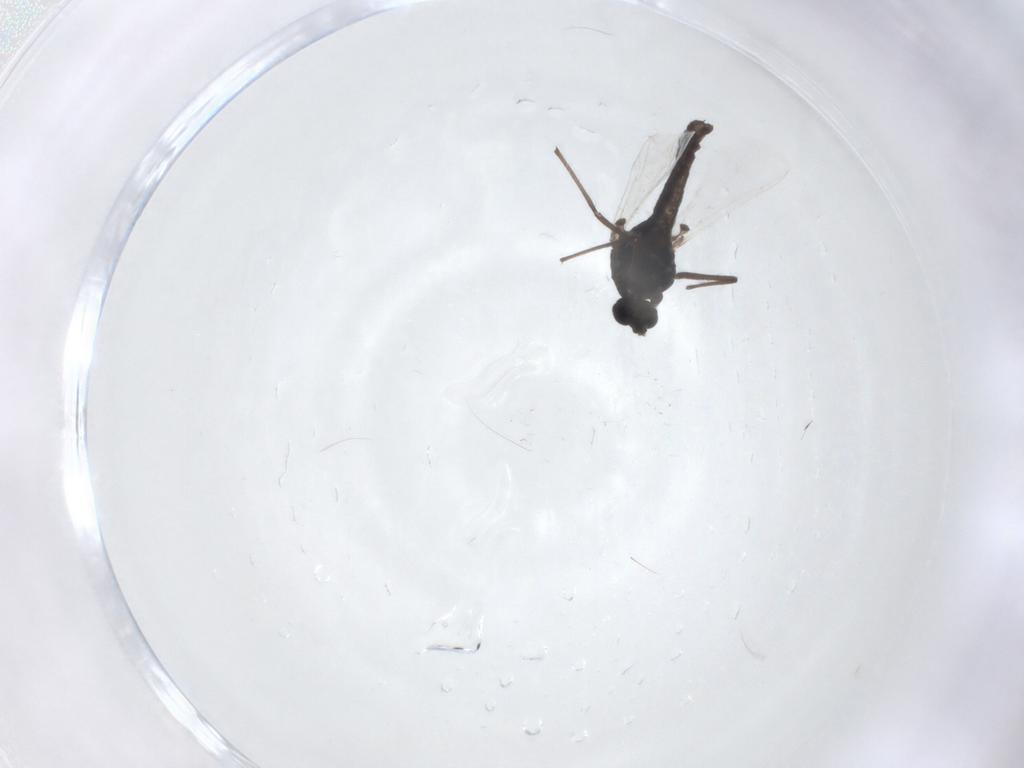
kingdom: Animalia
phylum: Arthropoda
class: Insecta
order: Diptera
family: Chironomidae
